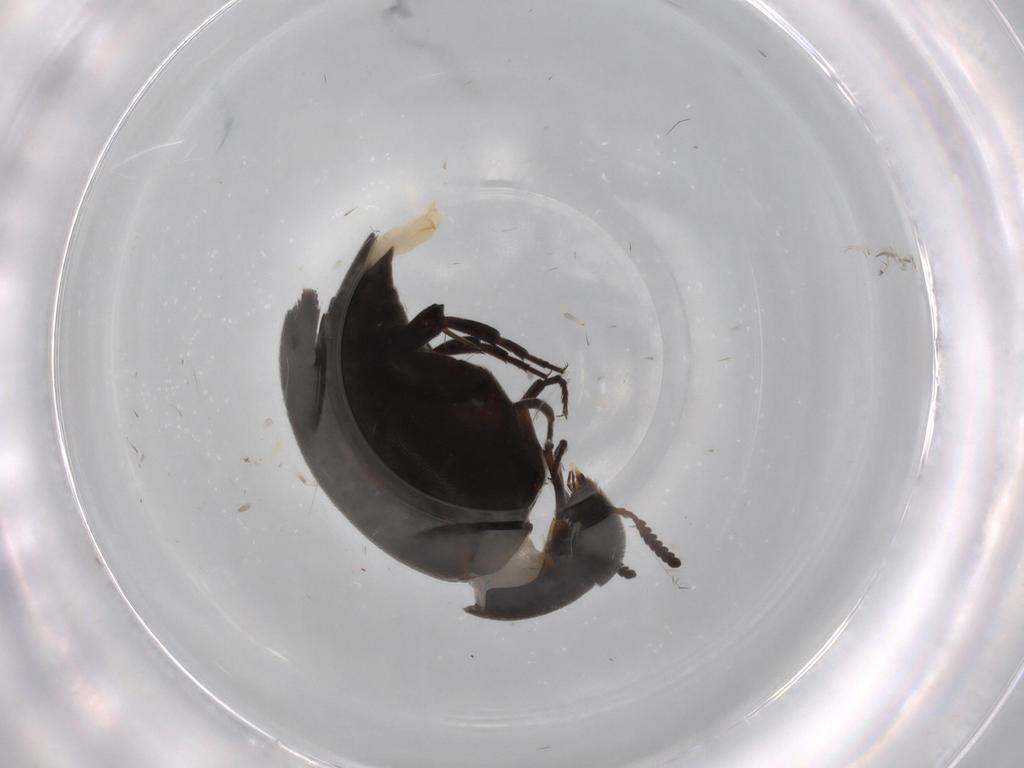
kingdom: Animalia
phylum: Arthropoda
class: Insecta
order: Coleoptera
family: Mordellidae
